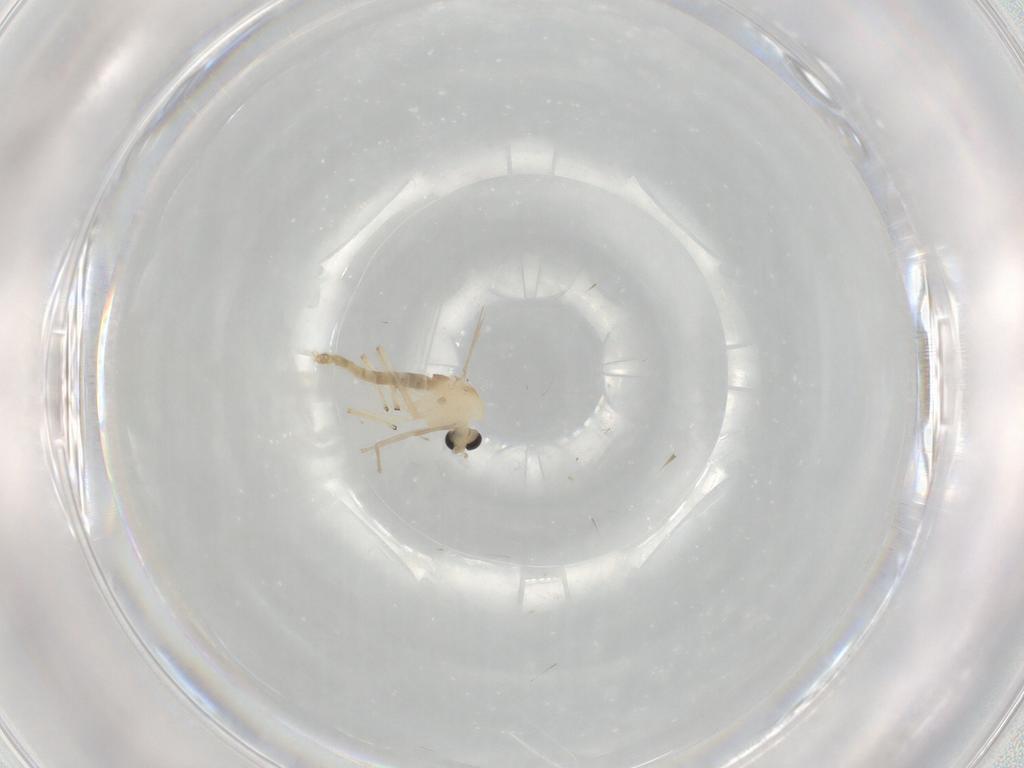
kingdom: Animalia
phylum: Arthropoda
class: Insecta
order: Diptera
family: Chironomidae
